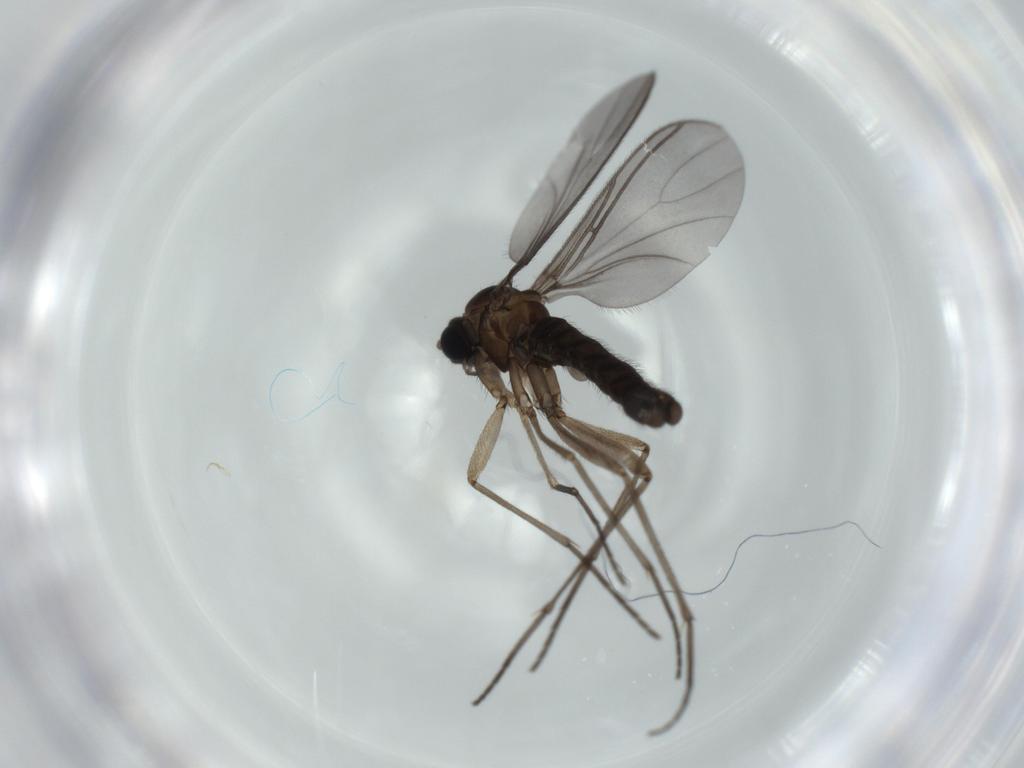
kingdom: Animalia
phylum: Arthropoda
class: Insecta
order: Diptera
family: Sciaridae
